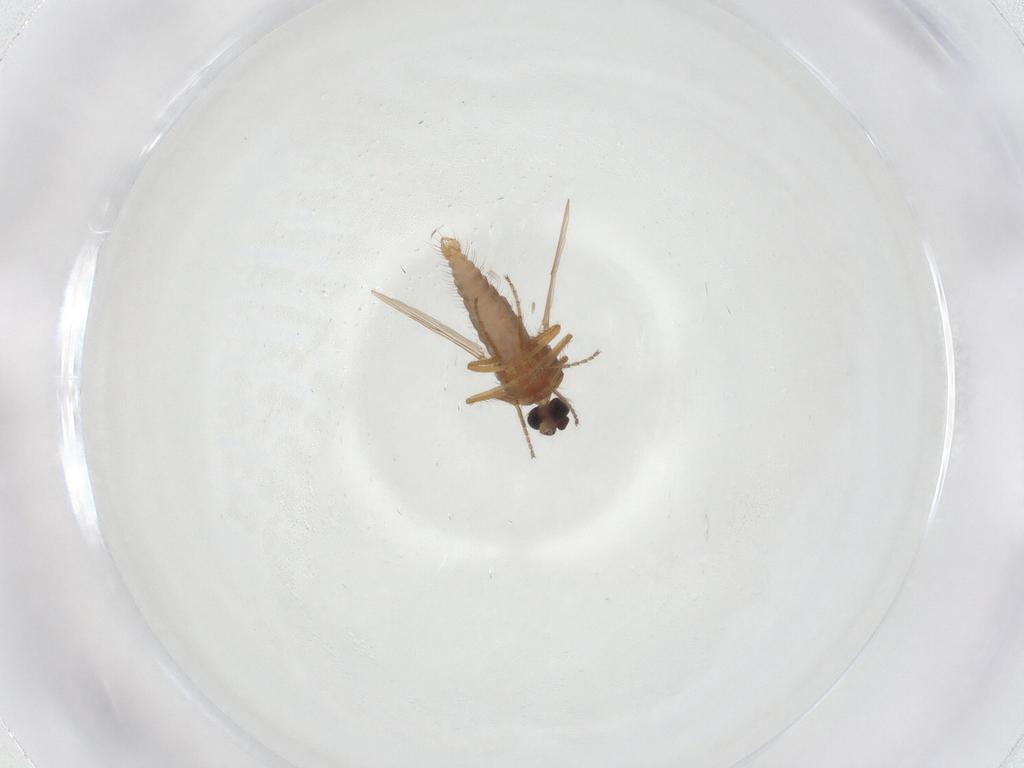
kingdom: Animalia
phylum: Arthropoda
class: Insecta
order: Diptera
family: Ceratopogonidae
